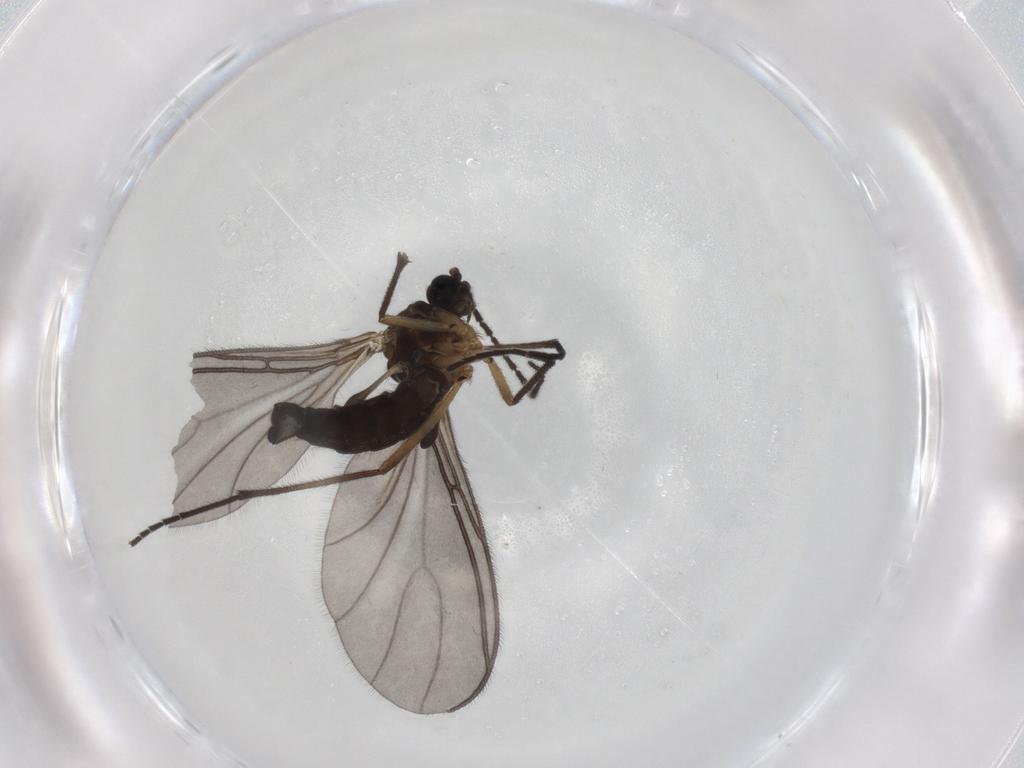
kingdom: Animalia
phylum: Arthropoda
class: Insecta
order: Diptera
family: Sciaridae
